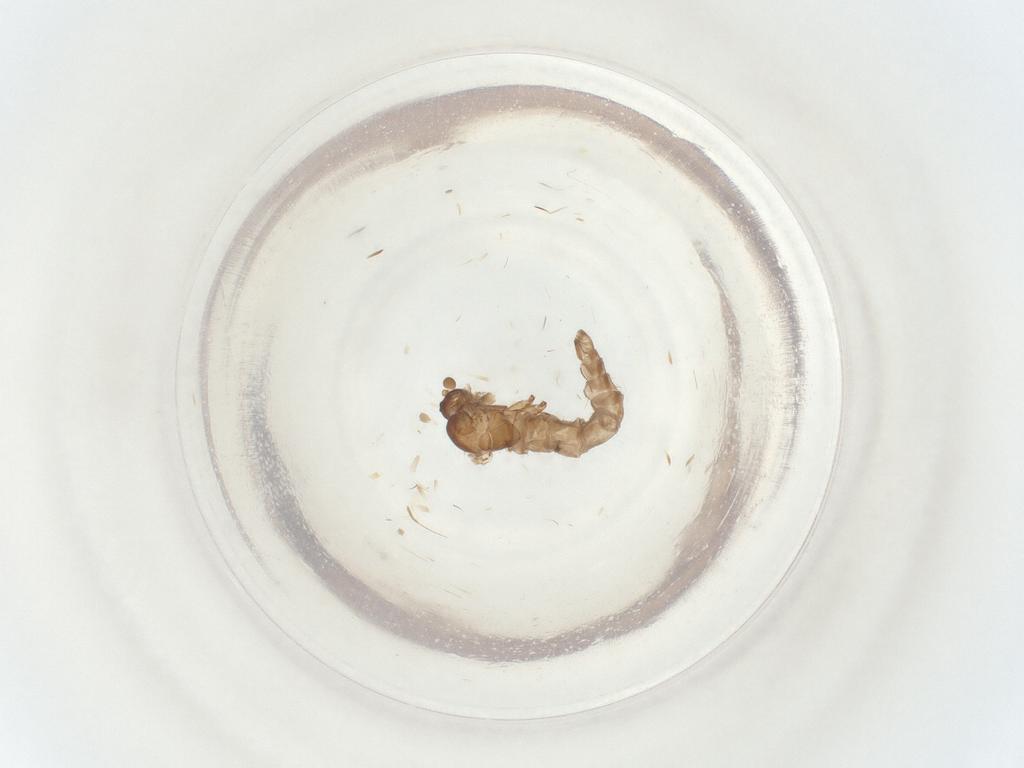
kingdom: Animalia
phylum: Arthropoda
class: Insecta
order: Diptera
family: Sciaridae
